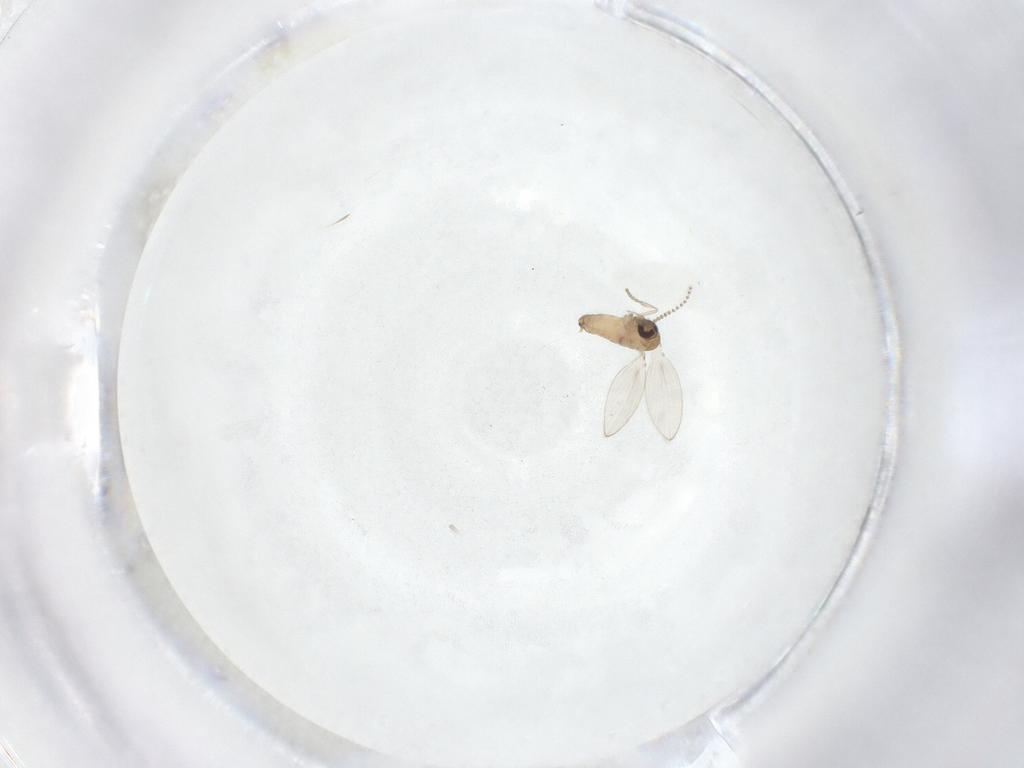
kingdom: Animalia
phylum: Arthropoda
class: Insecta
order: Diptera
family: Psychodidae
